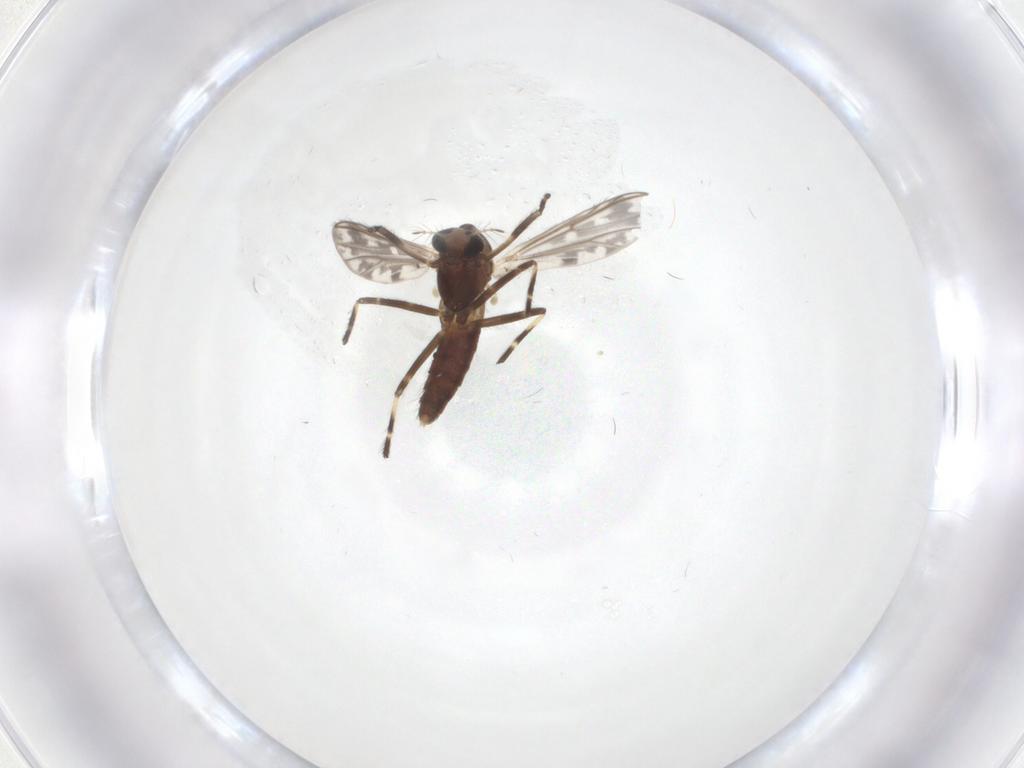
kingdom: Animalia
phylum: Arthropoda
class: Insecta
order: Diptera
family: Chironomidae
